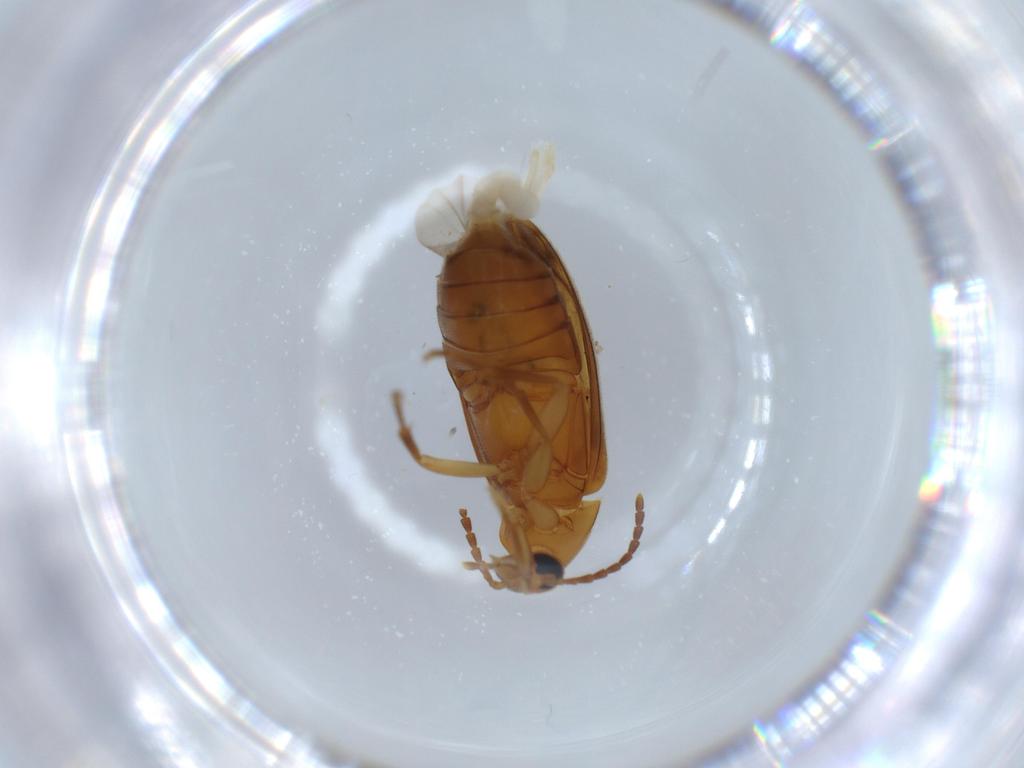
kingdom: Animalia
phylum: Arthropoda
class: Insecta
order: Coleoptera
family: Scraptiidae
